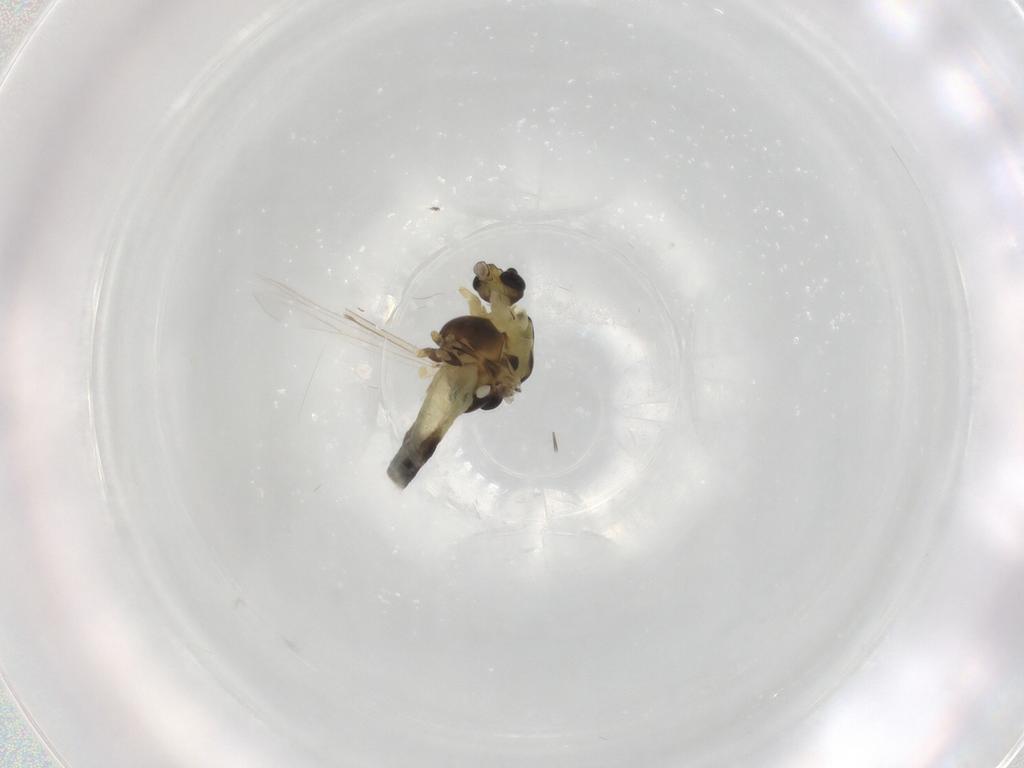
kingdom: Animalia
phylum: Arthropoda
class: Insecta
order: Diptera
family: Chironomidae
